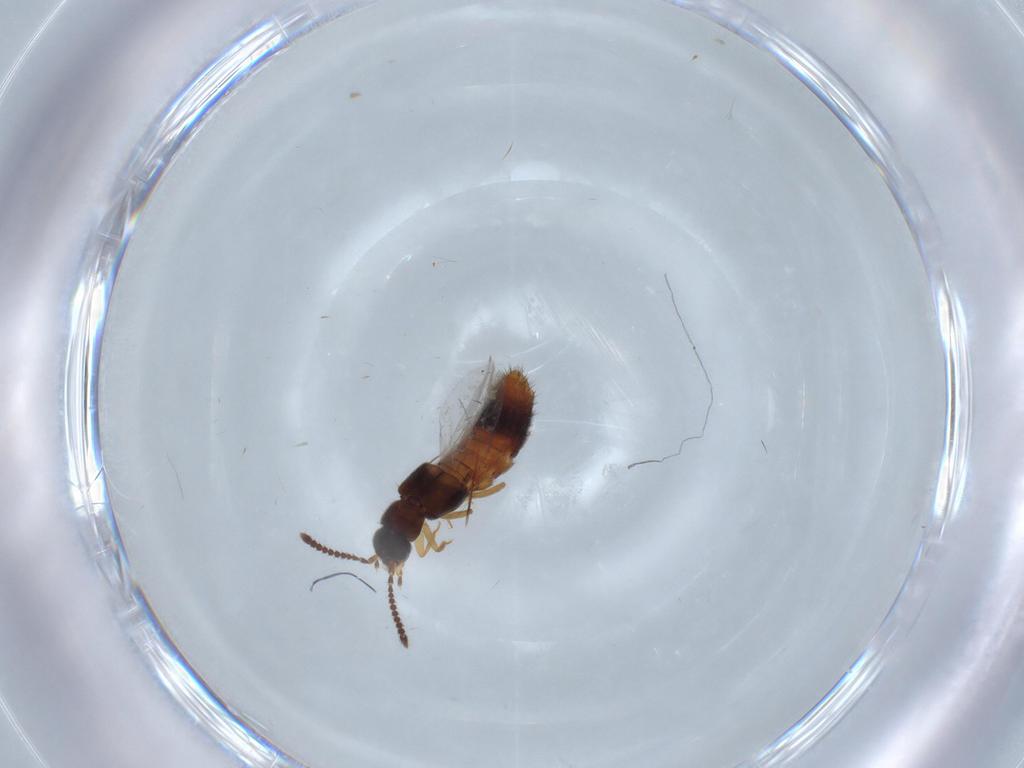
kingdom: Animalia
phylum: Arthropoda
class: Insecta
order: Coleoptera
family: Staphylinidae
